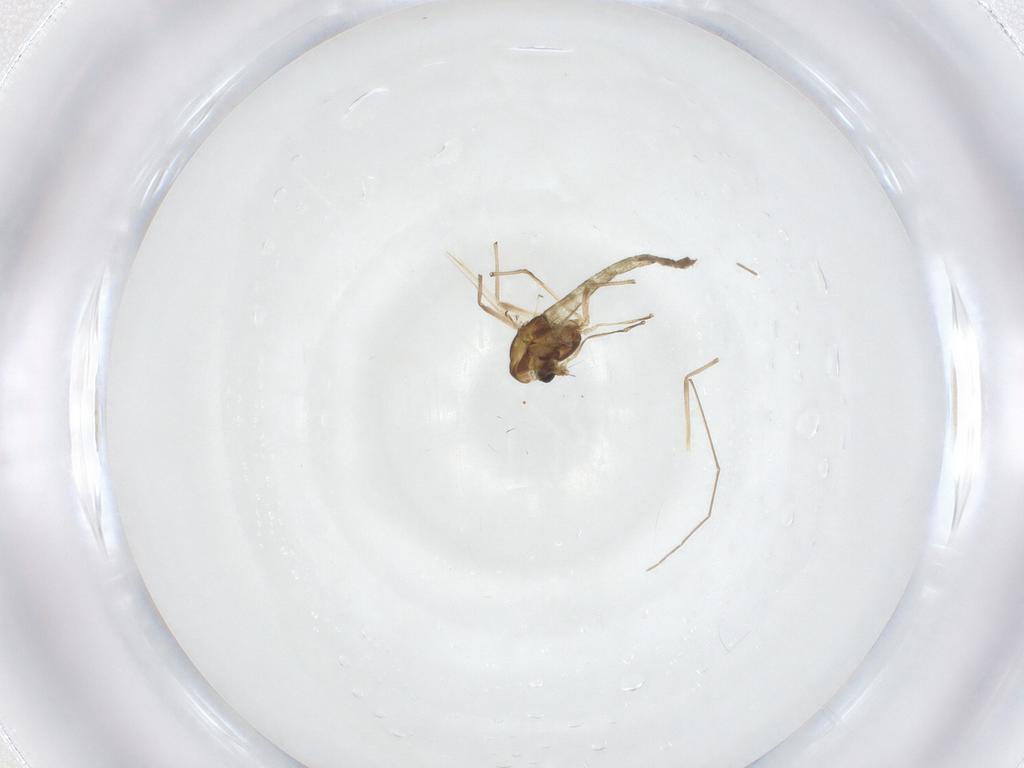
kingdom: Animalia
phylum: Arthropoda
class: Insecta
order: Diptera
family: Chironomidae
